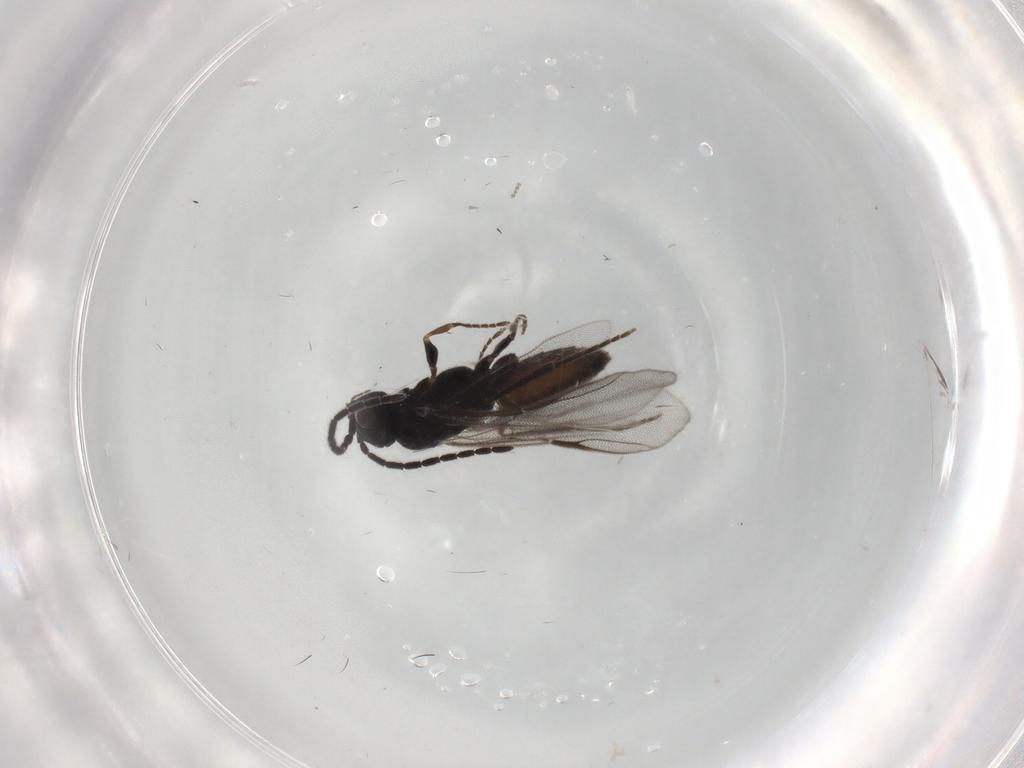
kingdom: Animalia
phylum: Arthropoda
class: Insecta
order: Hymenoptera
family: Dryinidae
